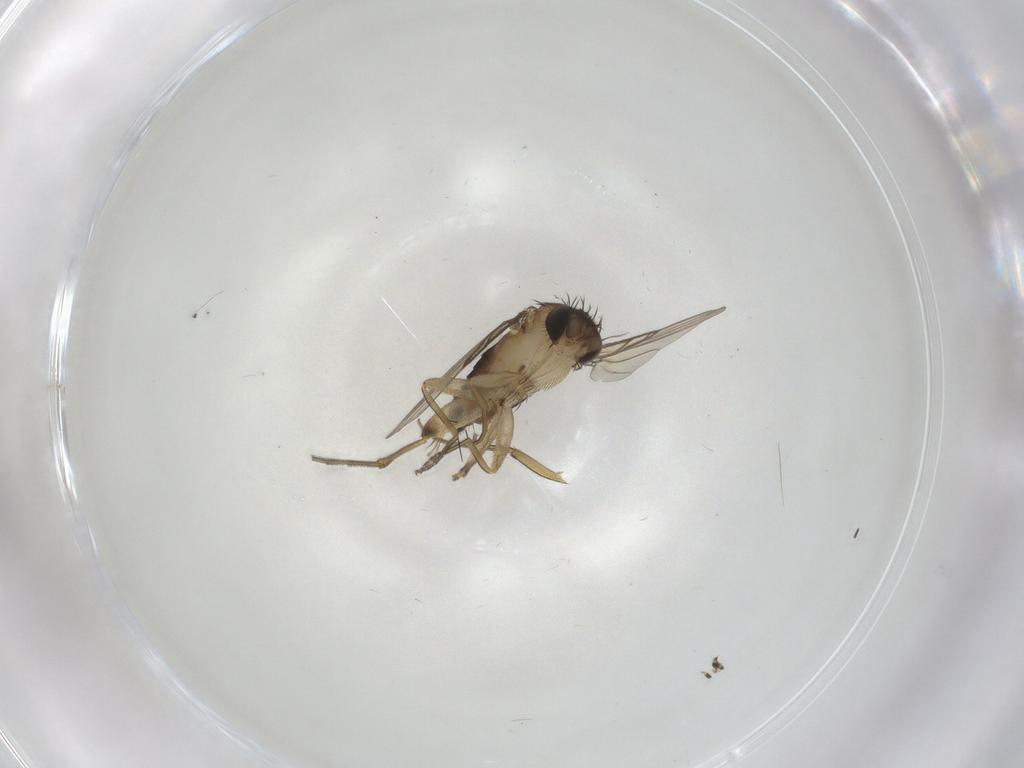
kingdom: Animalia
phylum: Arthropoda
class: Insecta
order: Diptera
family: Phoridae
